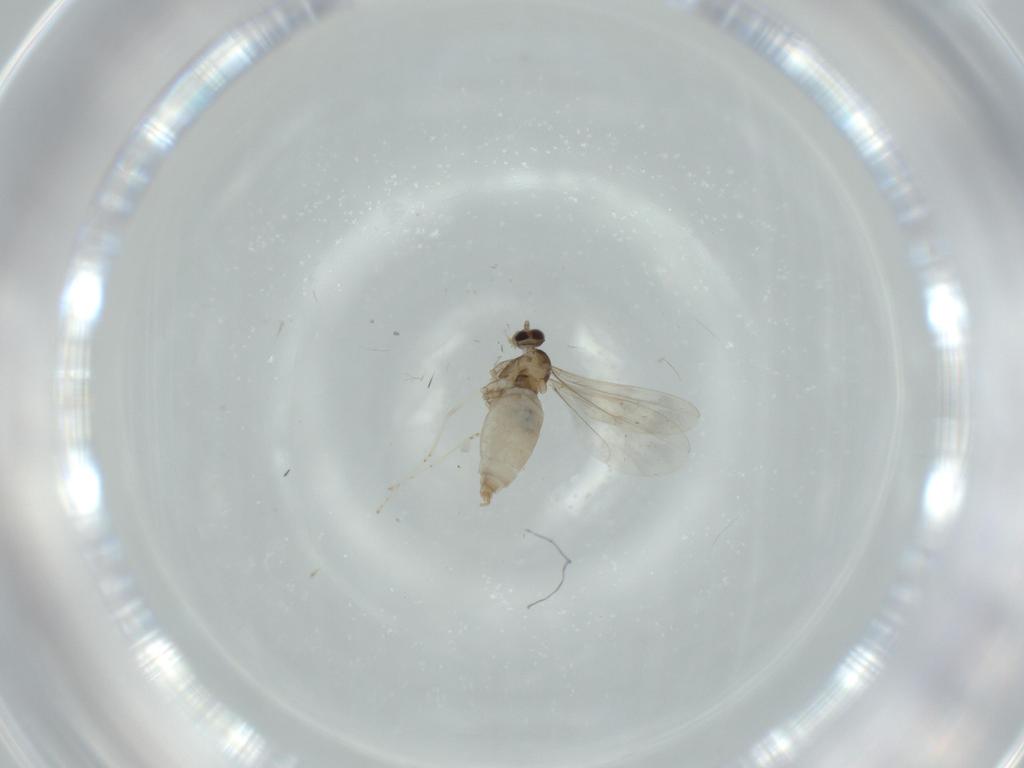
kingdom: Animalia
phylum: Arthropoda
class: Insecta
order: Diptera
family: Cecidomyiidae
